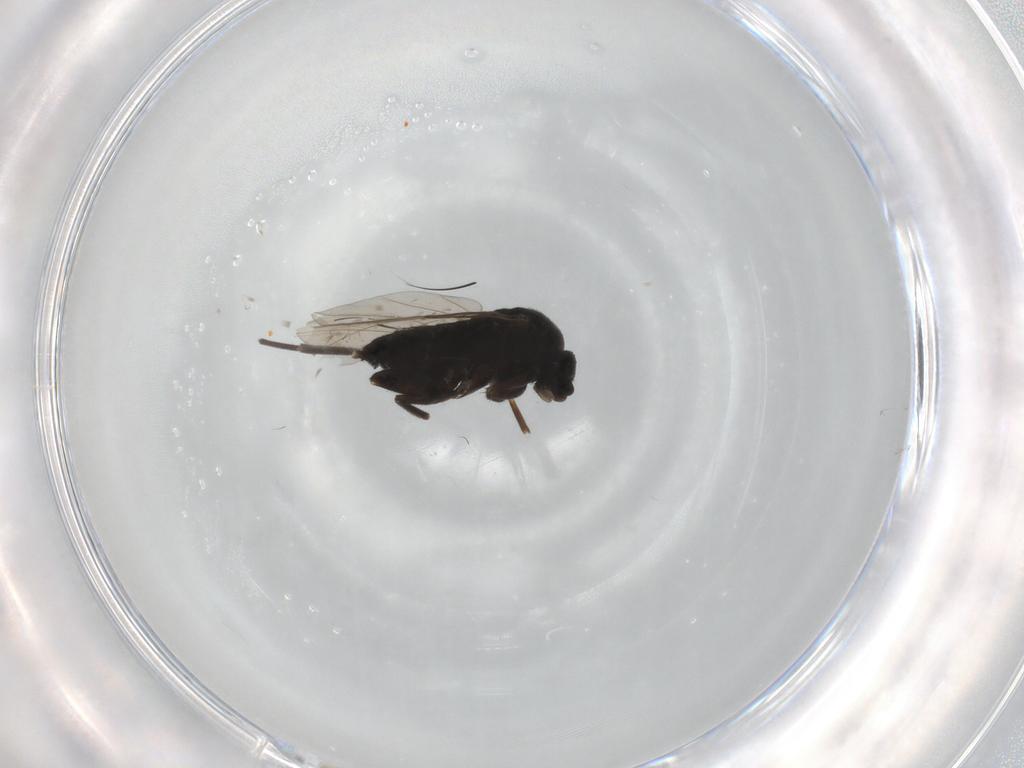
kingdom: Animalia
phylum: Arthropoda
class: Insecta
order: Diptera
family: Phoridae
